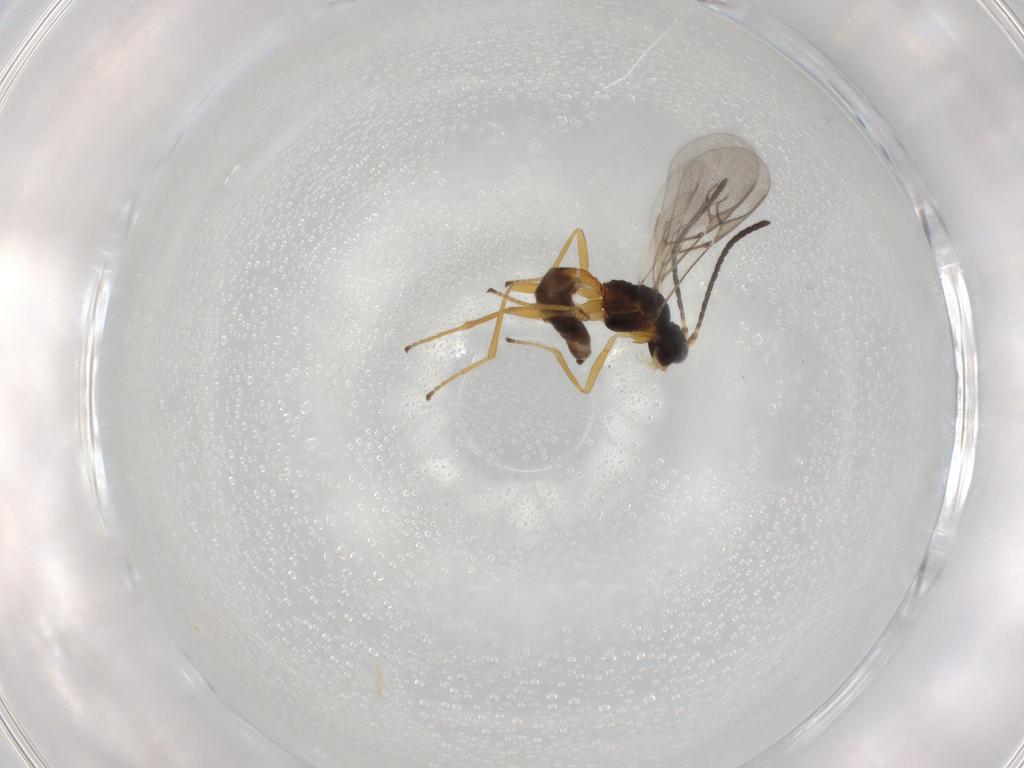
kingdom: Animalia
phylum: Arthropoda
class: Insecta
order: Hymenoptera
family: Braconidae
